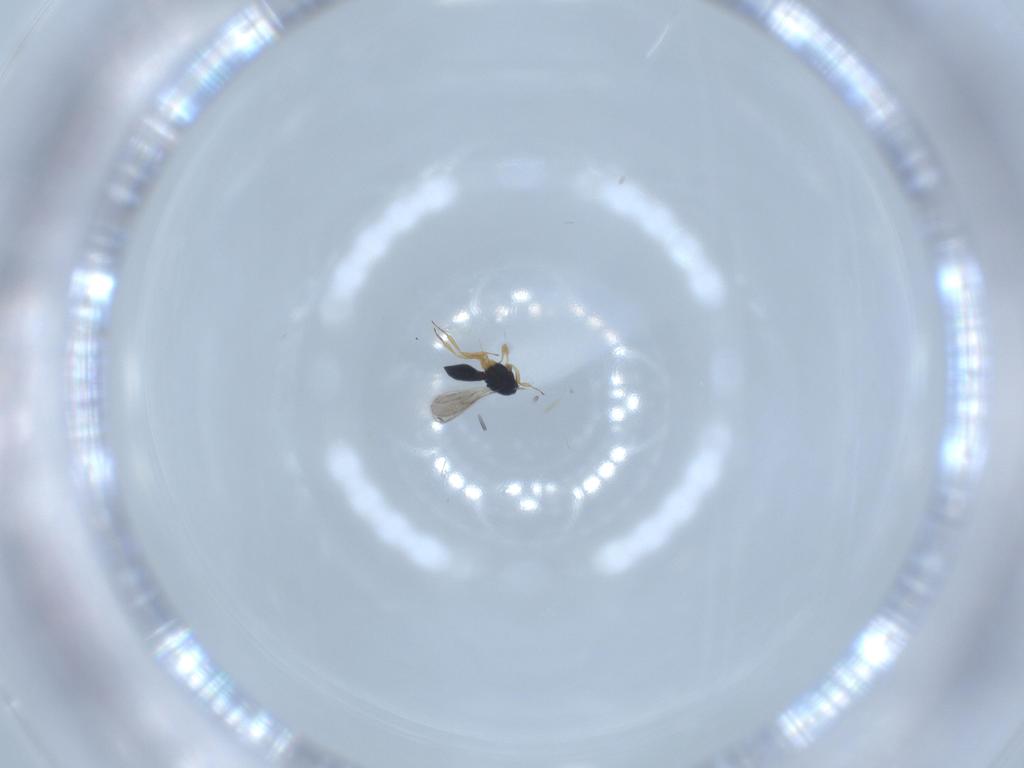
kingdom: Animalia
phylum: Arthropoda
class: Insecta
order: Hymenoptera
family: Scelionidae
